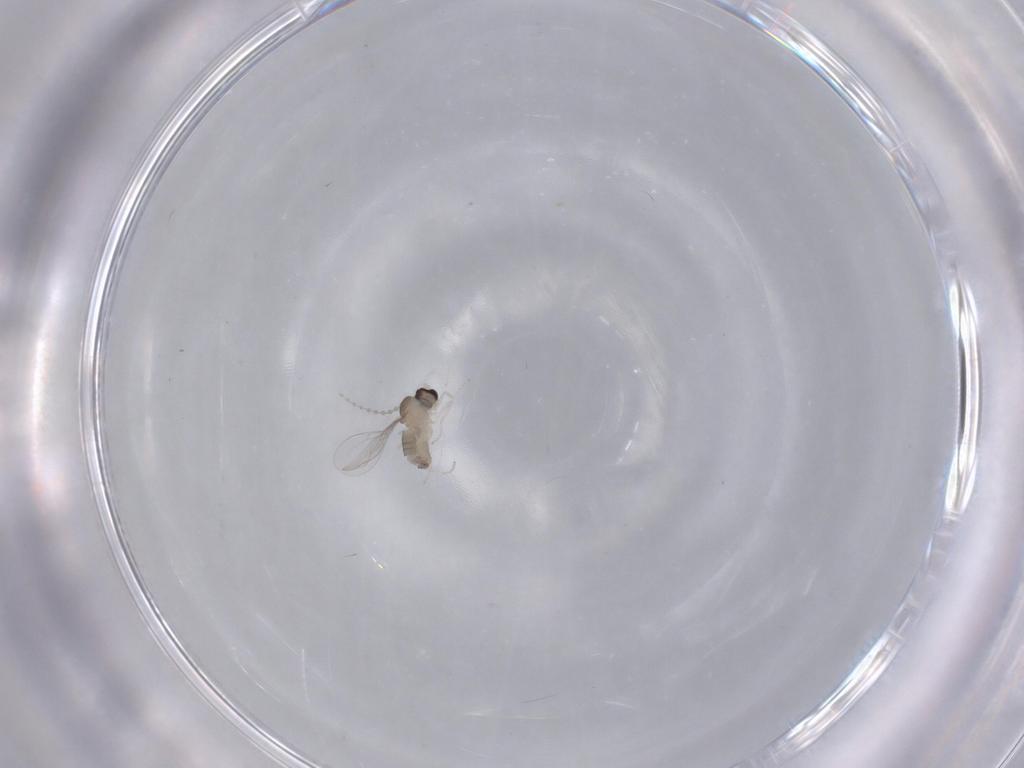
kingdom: Animalia
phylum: Arthropoda
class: Insecta
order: Diptera
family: Cecidomyiidae
